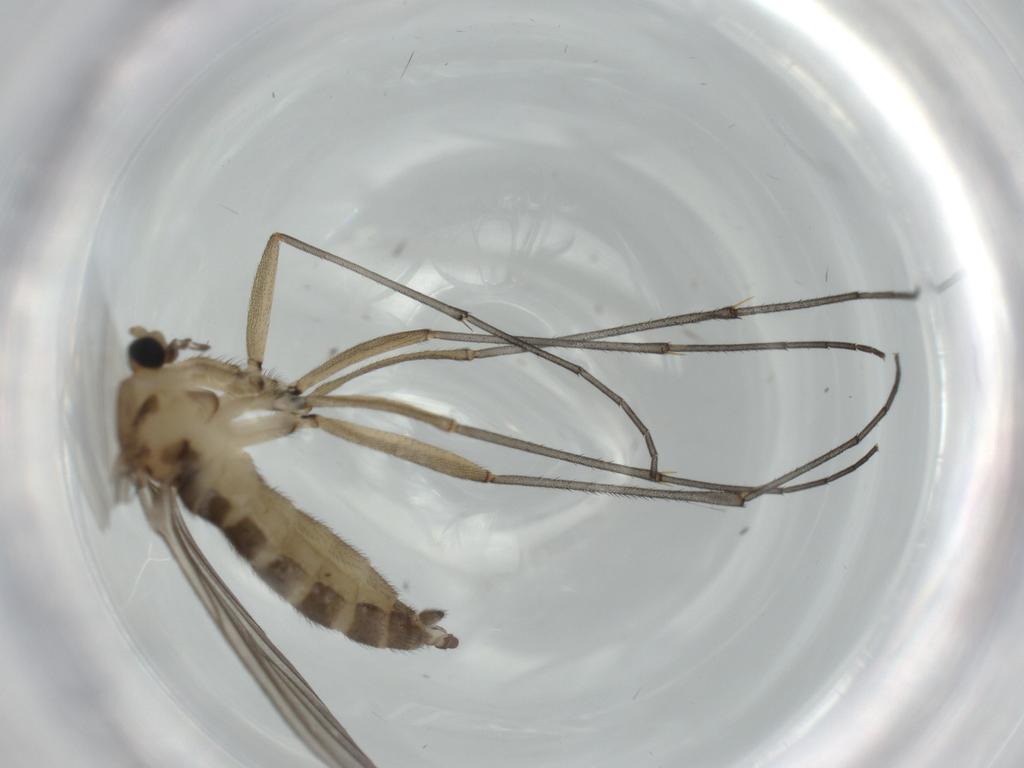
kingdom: Animalia
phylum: Arthropoda
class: Insecta
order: Diptera
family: Sciaridae
